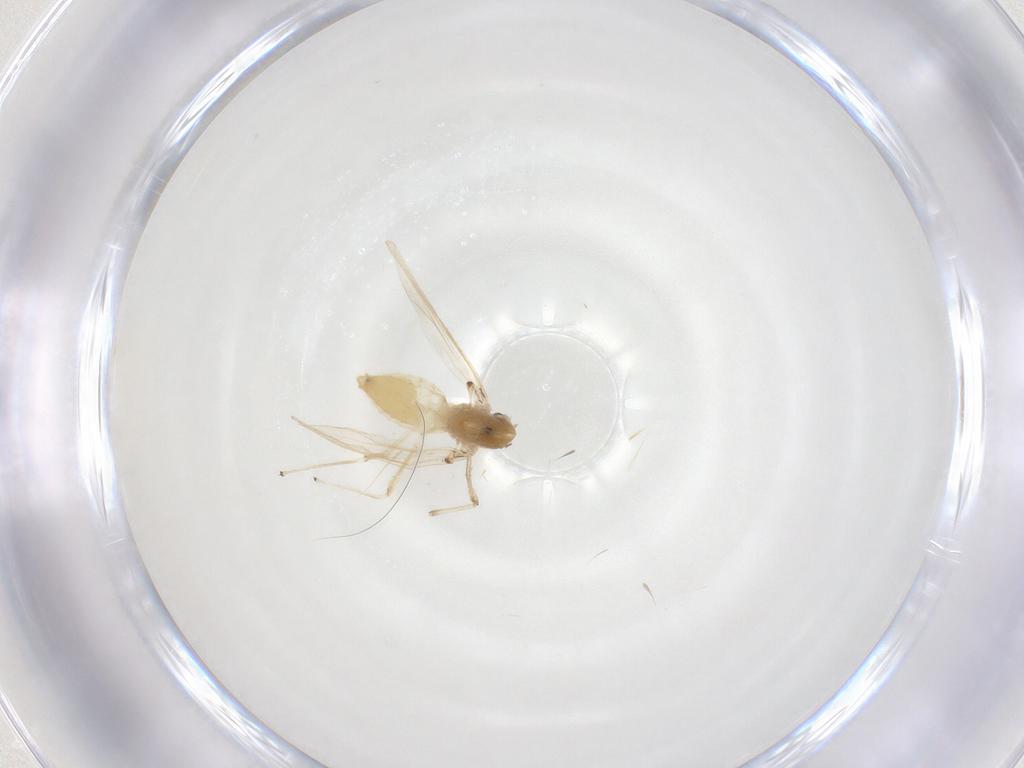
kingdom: Animalia
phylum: Arthropoda
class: Insecta
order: Diptera
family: Chironomidae
